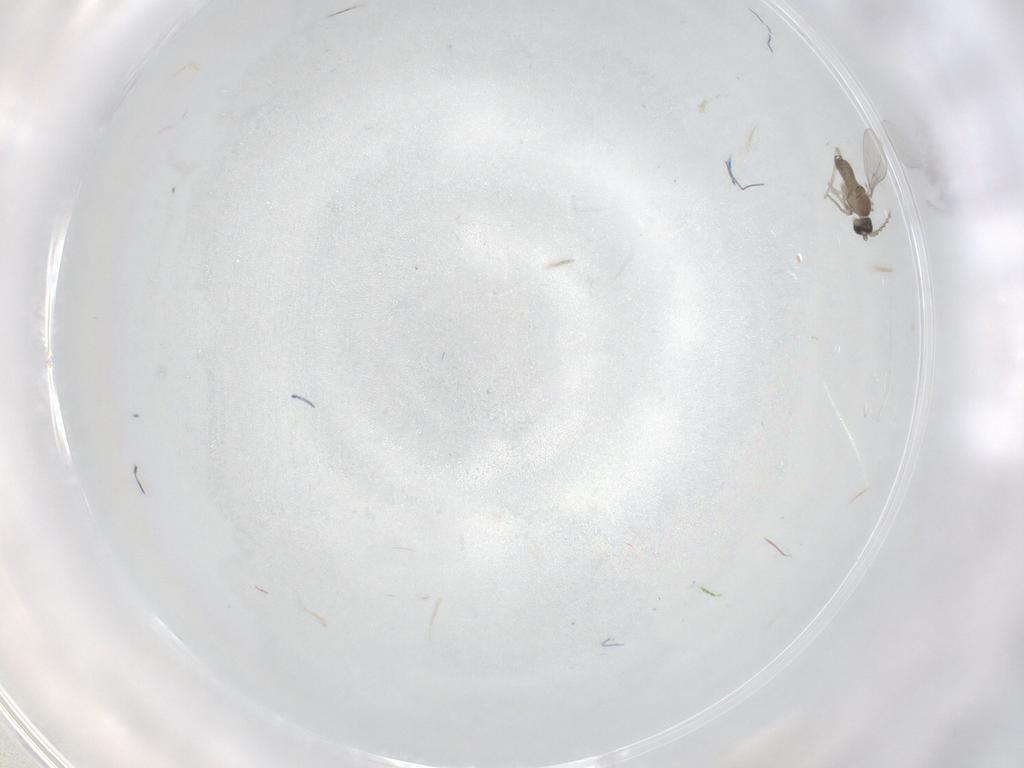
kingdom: Animalia
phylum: Arthropoda
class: Insecta
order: Diptera
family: Cecidomyiidae
